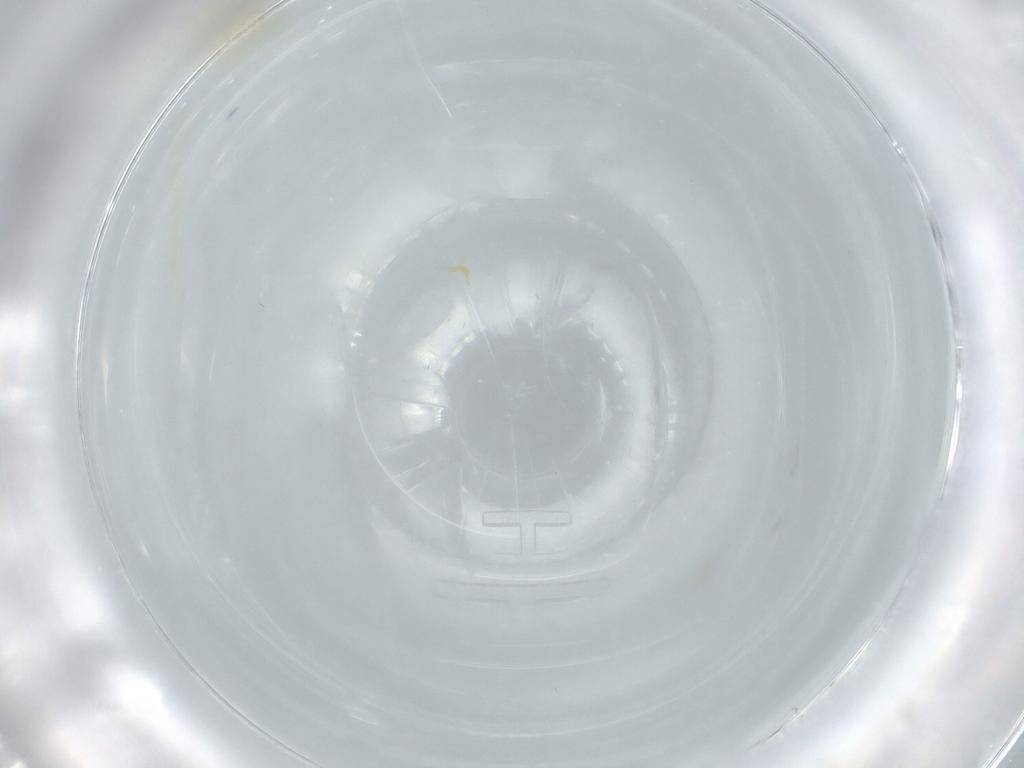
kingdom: Animalia
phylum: Arthropoda
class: Insecta
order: Diptera
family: Cecidomyiidae
